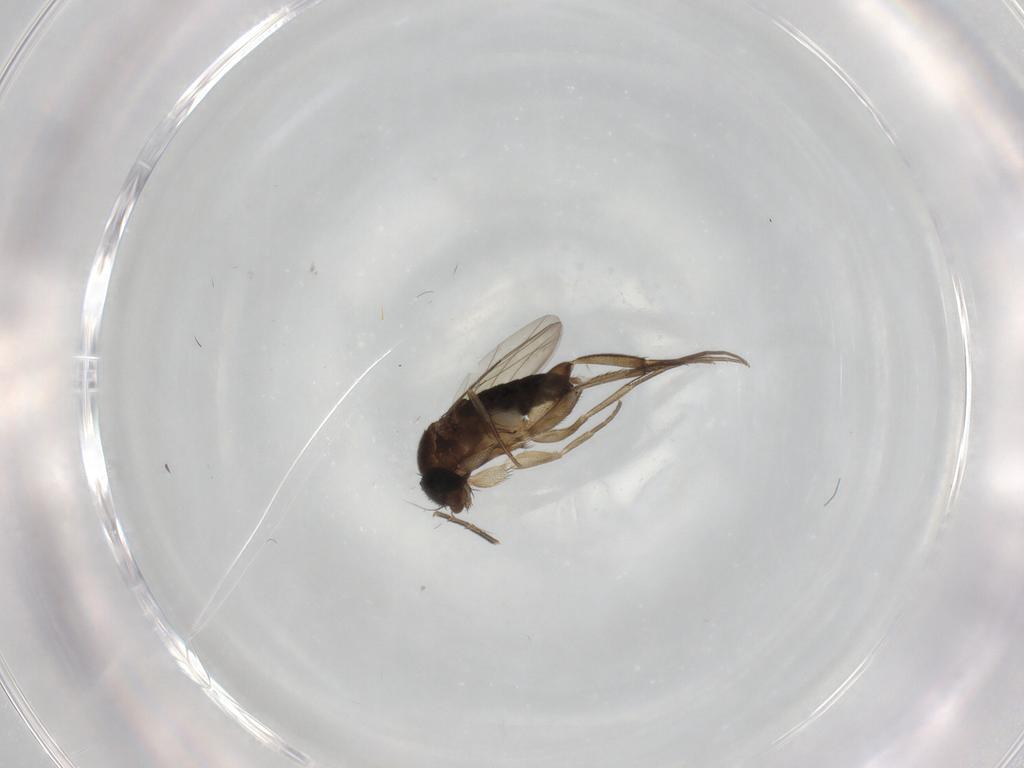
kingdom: Animalia
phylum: Arthropoda
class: Insecta
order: Diptera
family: Phoridae
